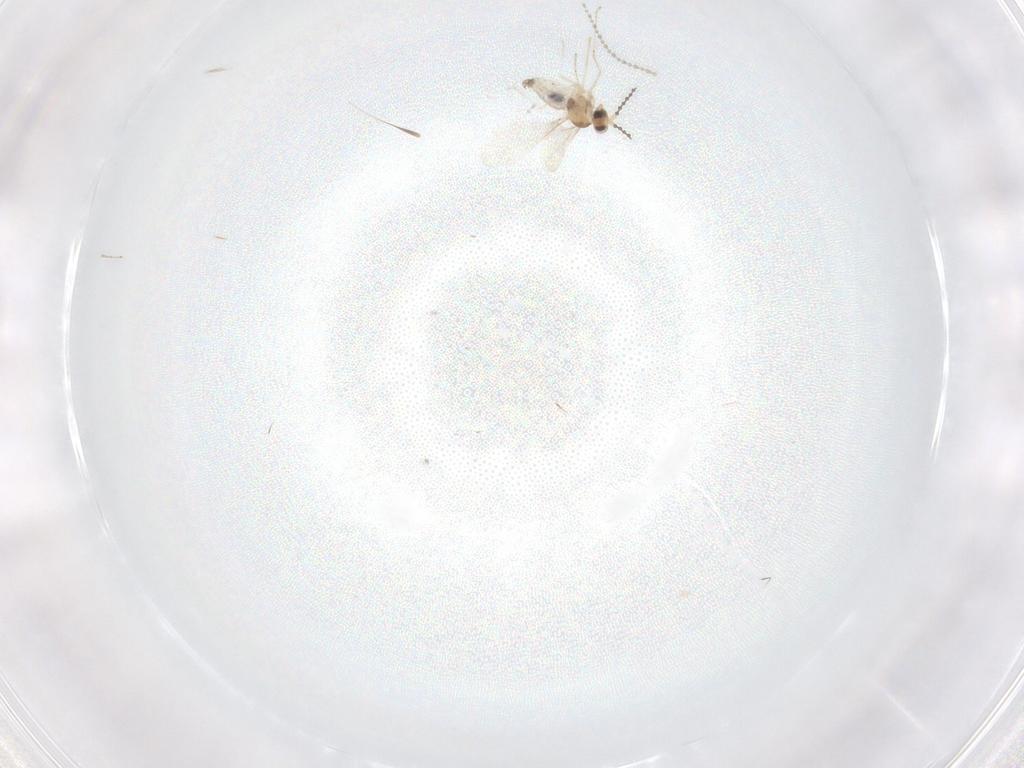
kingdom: Animalia
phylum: Arthropoda
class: Insecta
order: Diptera
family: Cecidomyiidae
